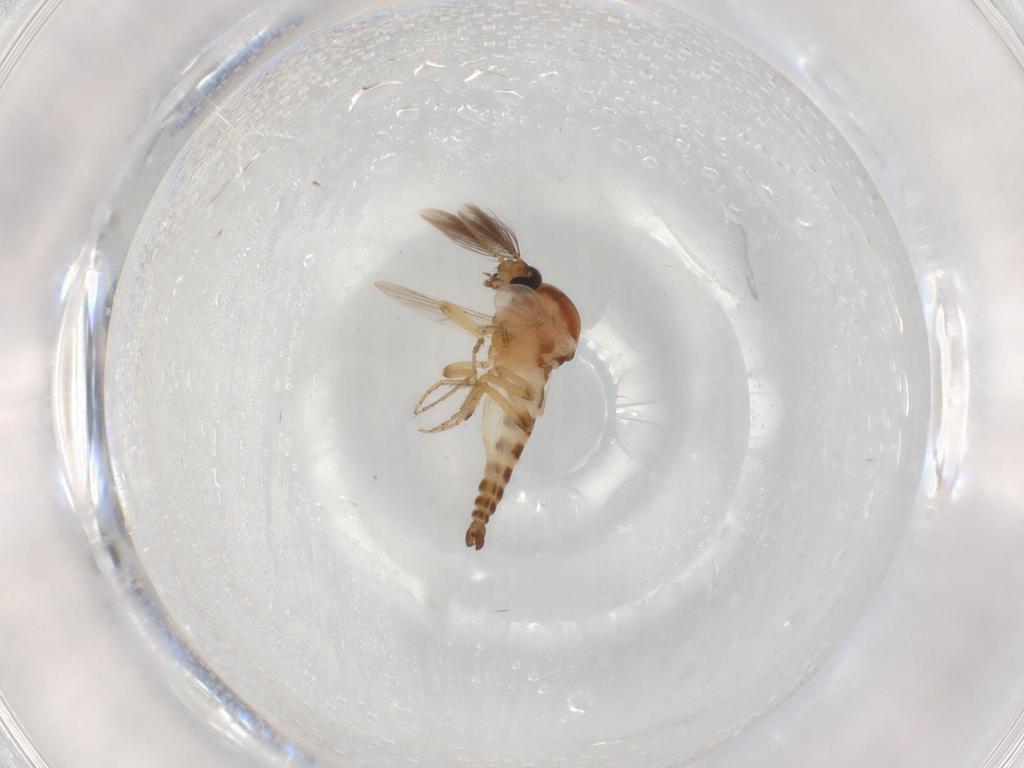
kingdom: Animalia
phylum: Arthropoda
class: Insecta
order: Diptera
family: Ceratopogonidae
